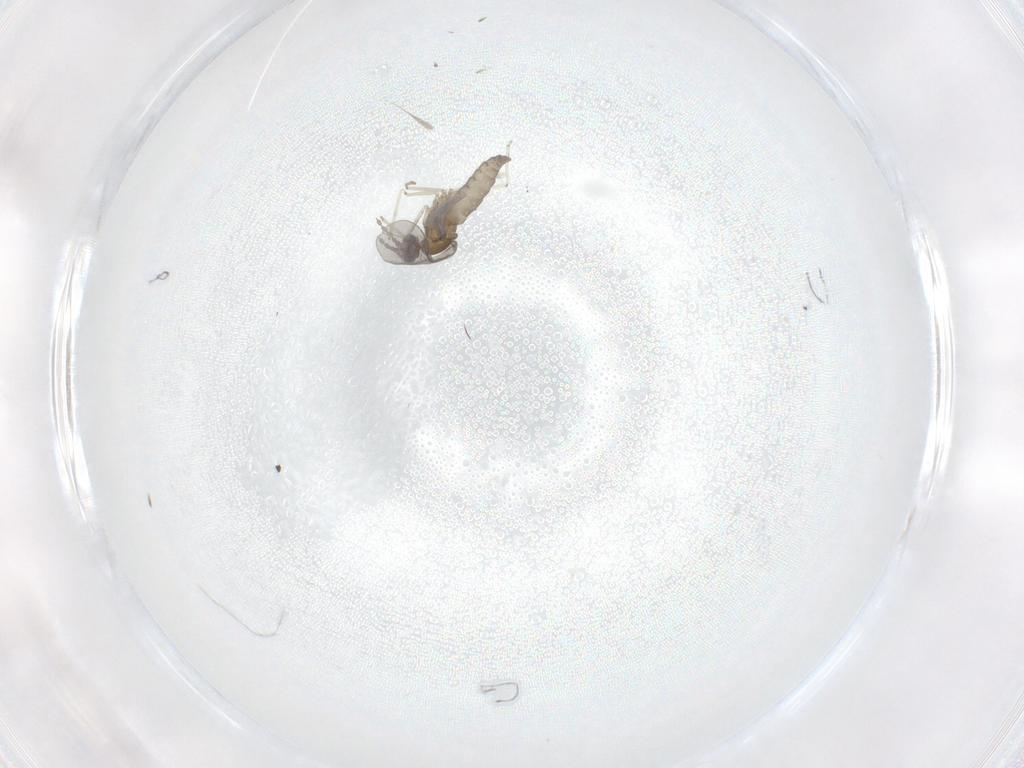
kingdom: Animalia
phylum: Arthropoda
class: Insecta
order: Diptera
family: Cecidomyiidae
